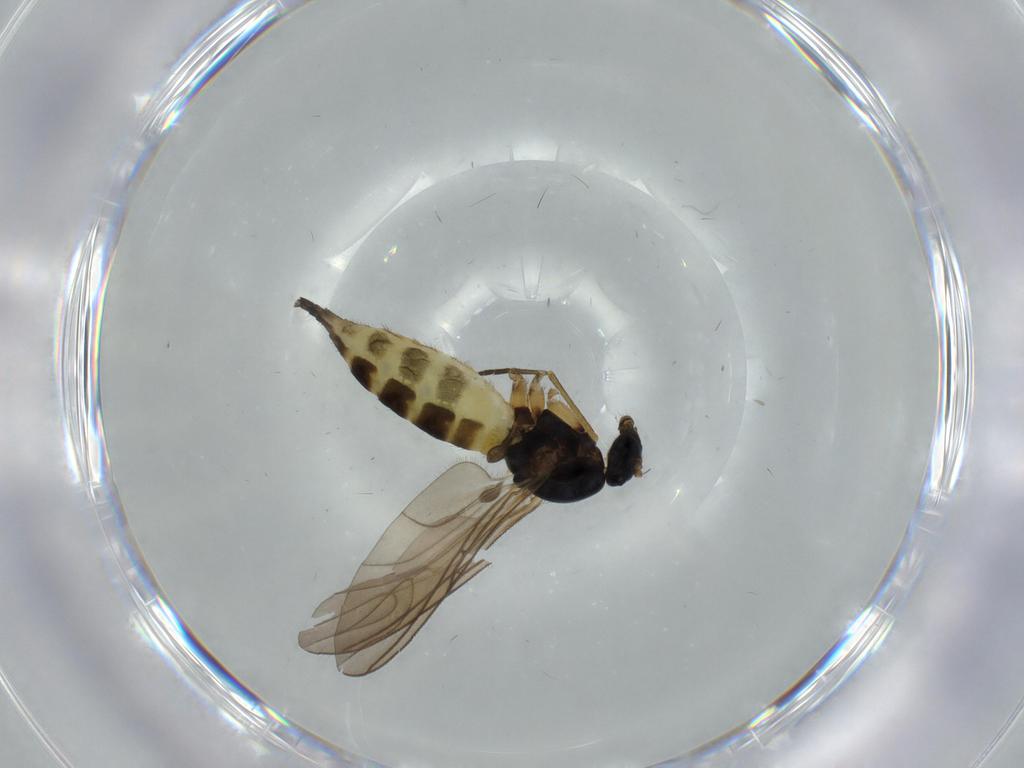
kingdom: Animalia
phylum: Arthropoda
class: Insecta
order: Diptera
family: Sciaridae
